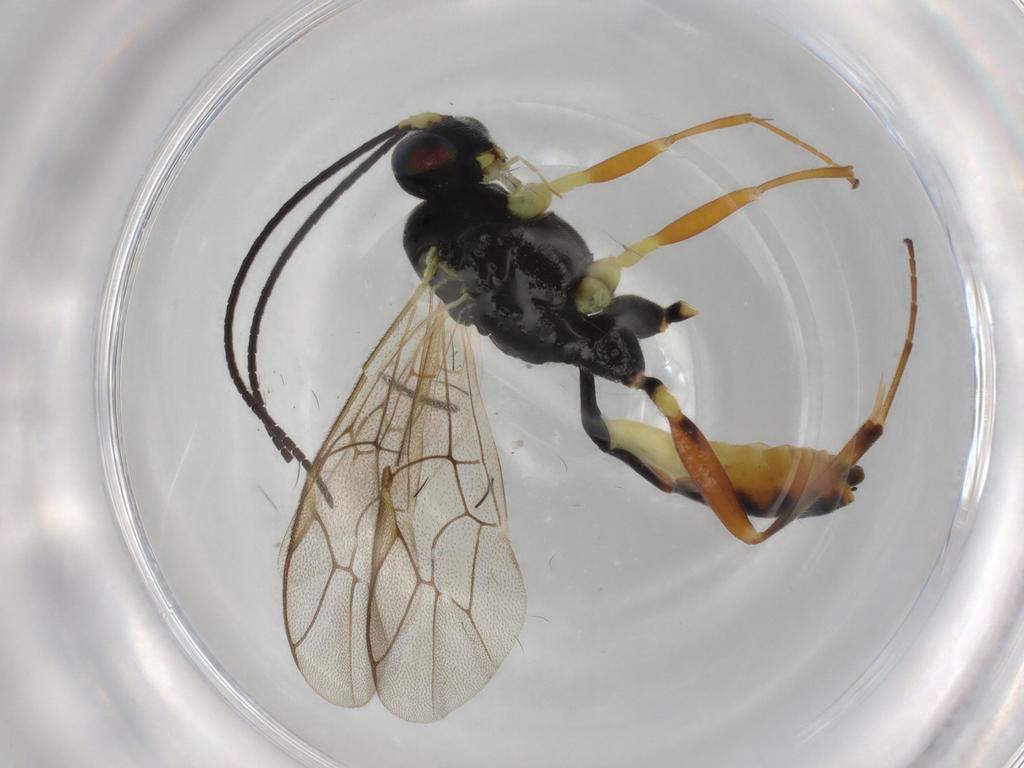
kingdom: Animalia
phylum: Arthropoda
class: Insecta
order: Hymenoptera
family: Ichneumonidae
